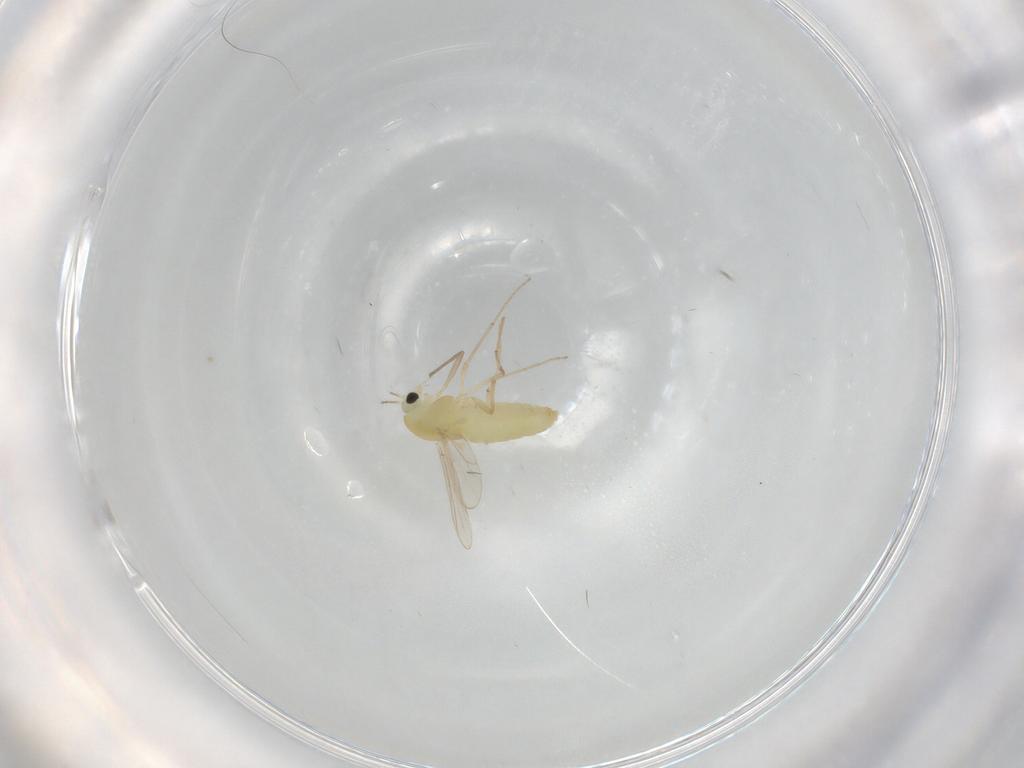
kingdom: Animalia
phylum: Arthropoda
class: Insecta
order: Diptera
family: Chironomidae
